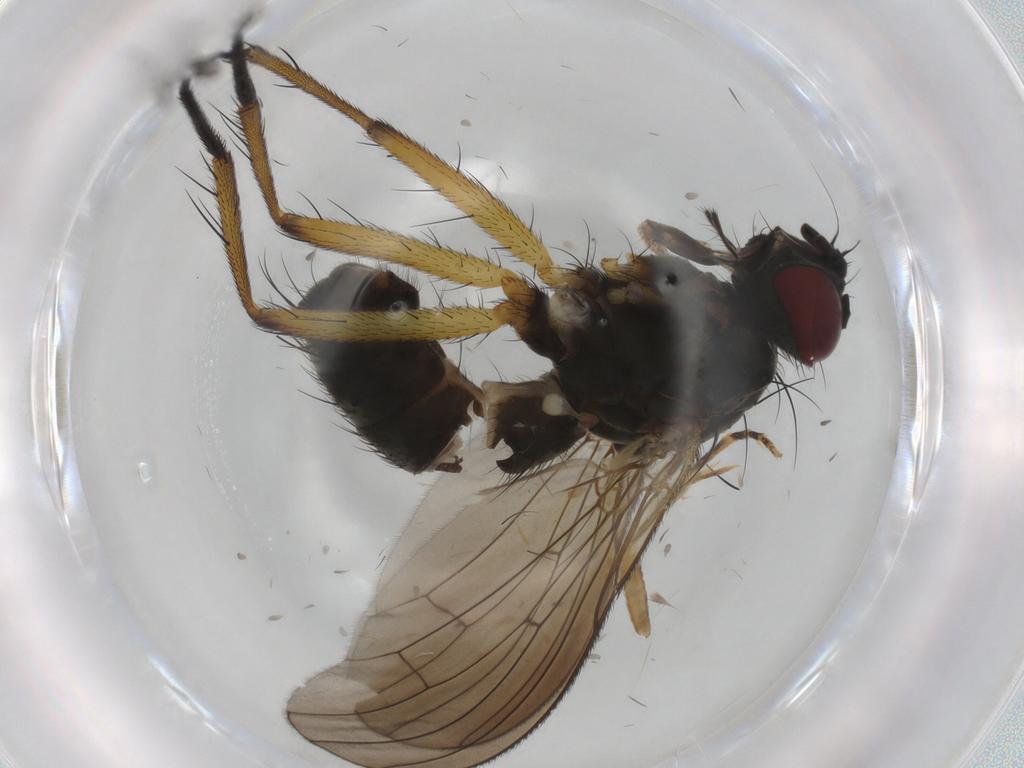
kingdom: Animalia
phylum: Arthropoda
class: Insecta
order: Diptera
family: Muscidae
